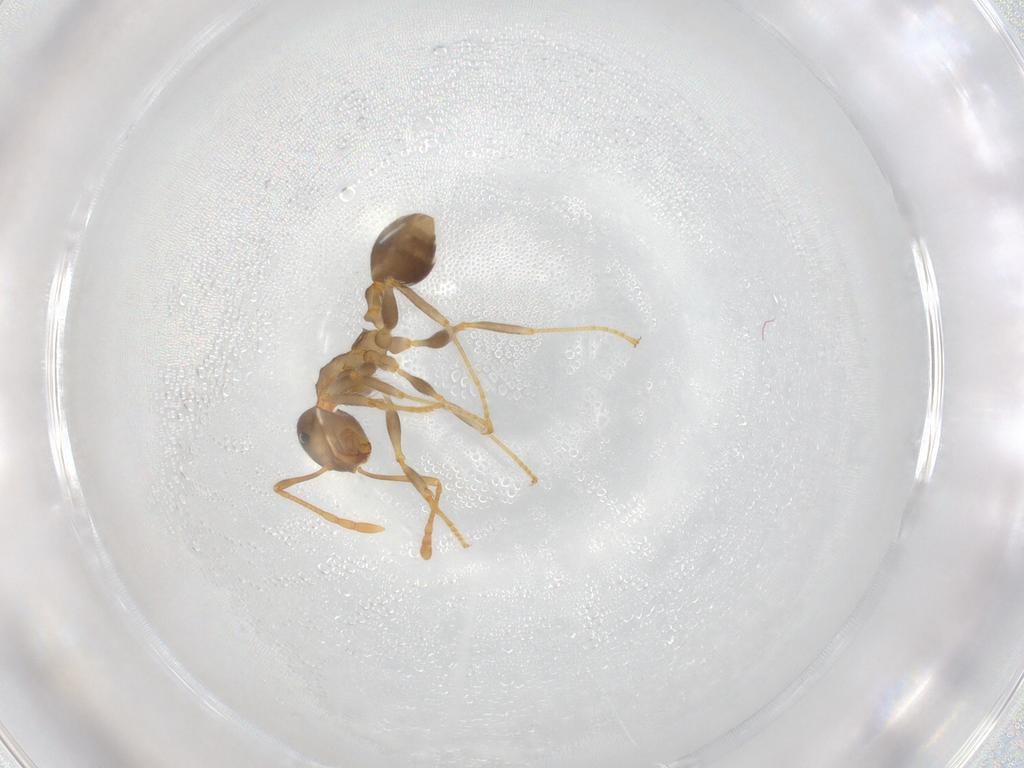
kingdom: Animalia
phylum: Arthropoda
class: Insecta
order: Hymenoptera
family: Formicidae
